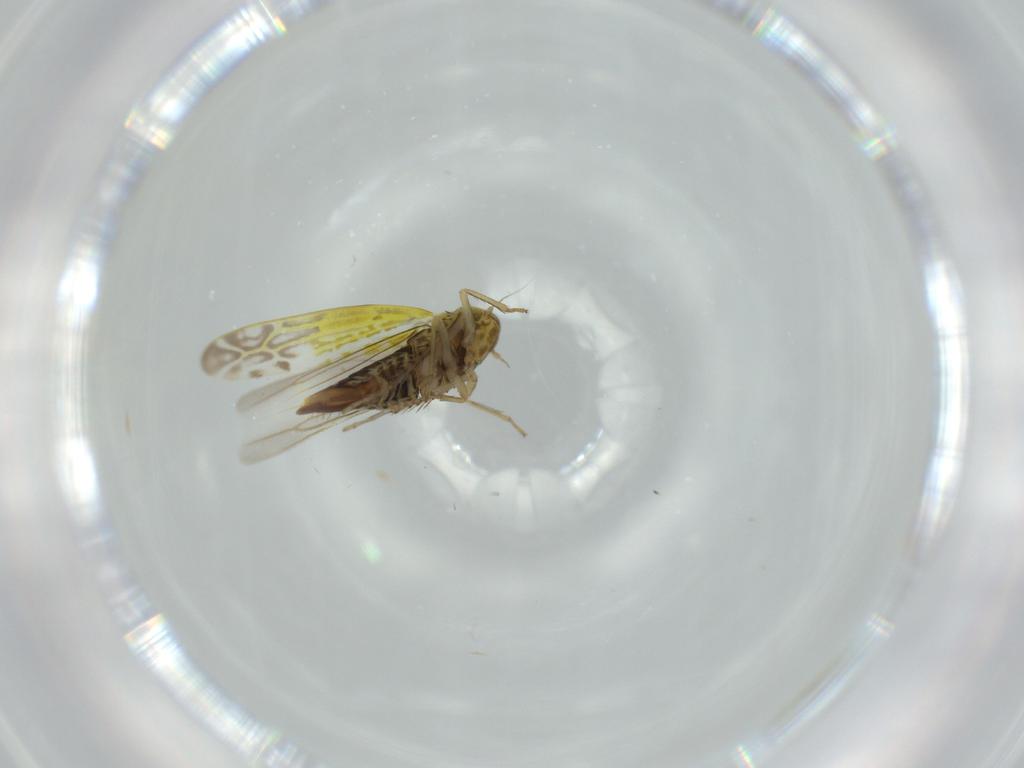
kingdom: Animalia
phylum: Arthropoda
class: Insecta
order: Hemiptera
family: Cicadellidae
